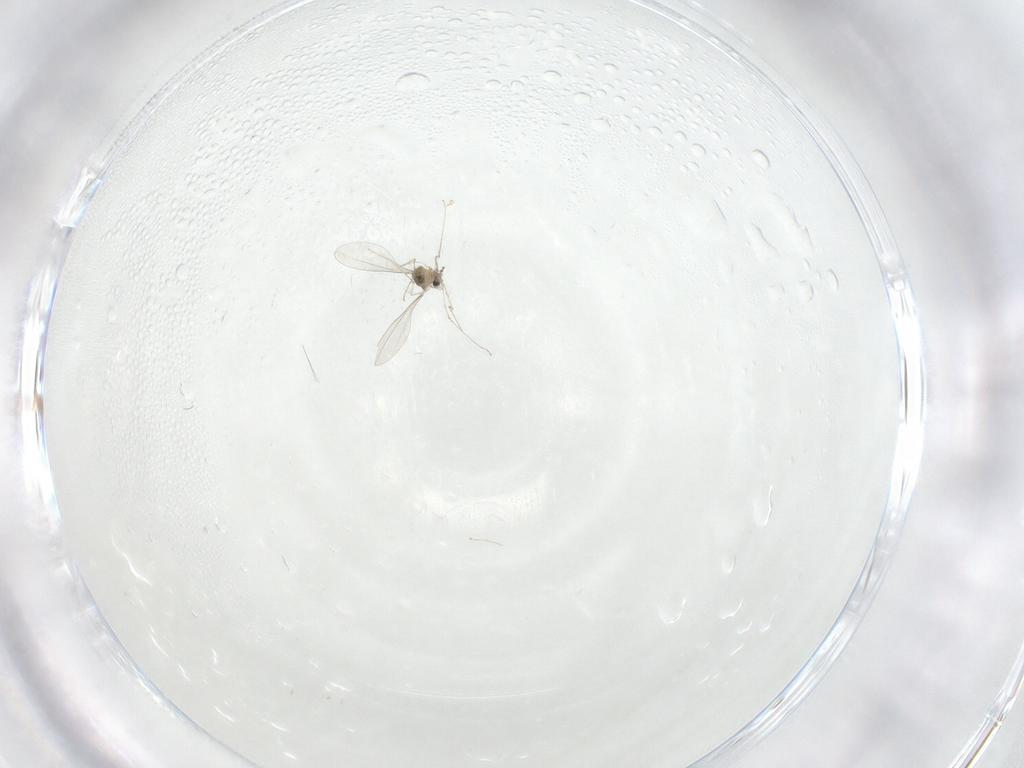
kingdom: Animalia
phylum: Arthropoda
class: Insecta
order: Diptera
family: Cecidomyiidae
